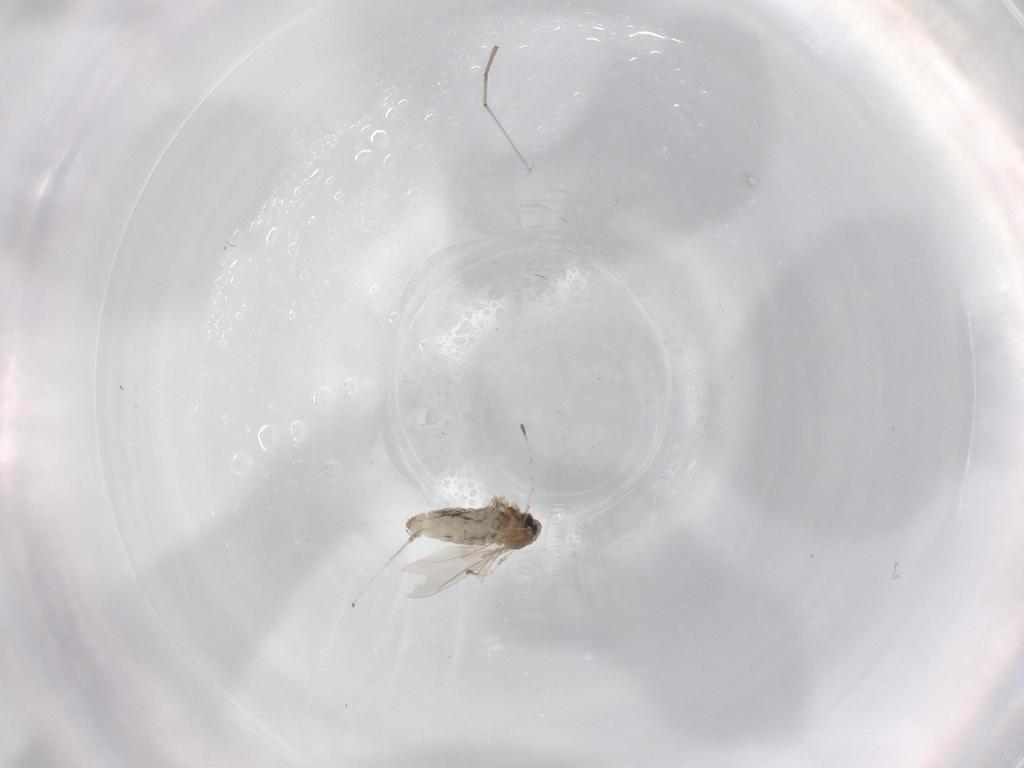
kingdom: Animalia
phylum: Arthropoda
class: Insecta
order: Diptera
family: Cecidomyiidae
